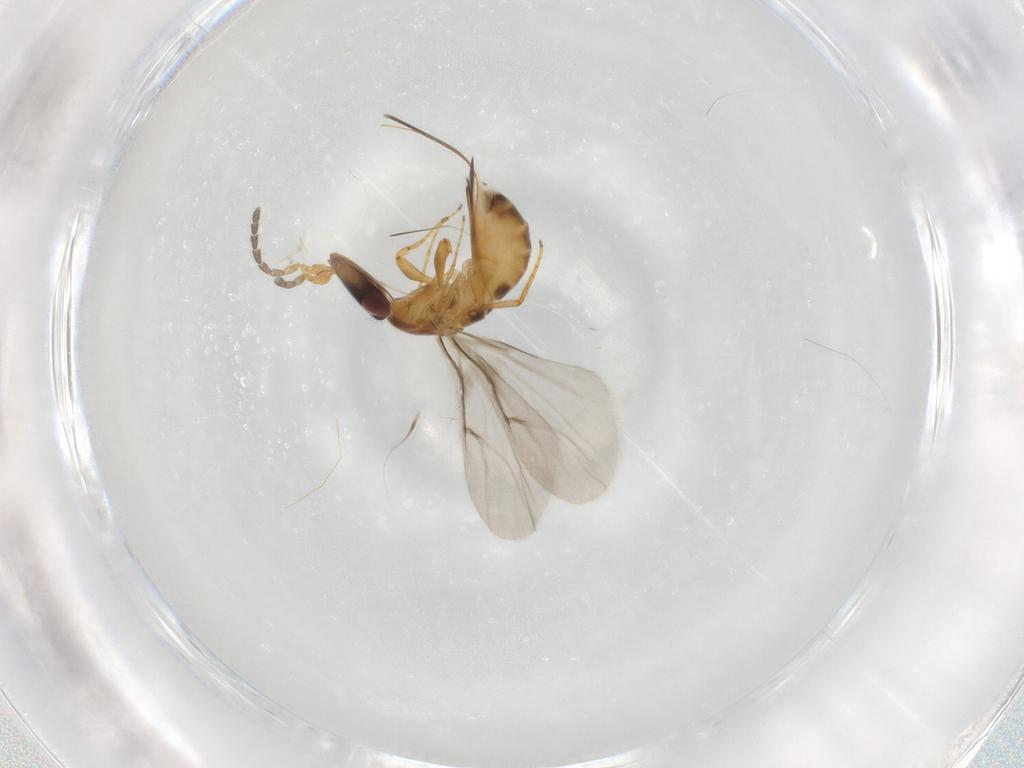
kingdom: Animalia
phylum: Arthropoda
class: Insecta
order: Hymenoptera
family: Agaonidae
